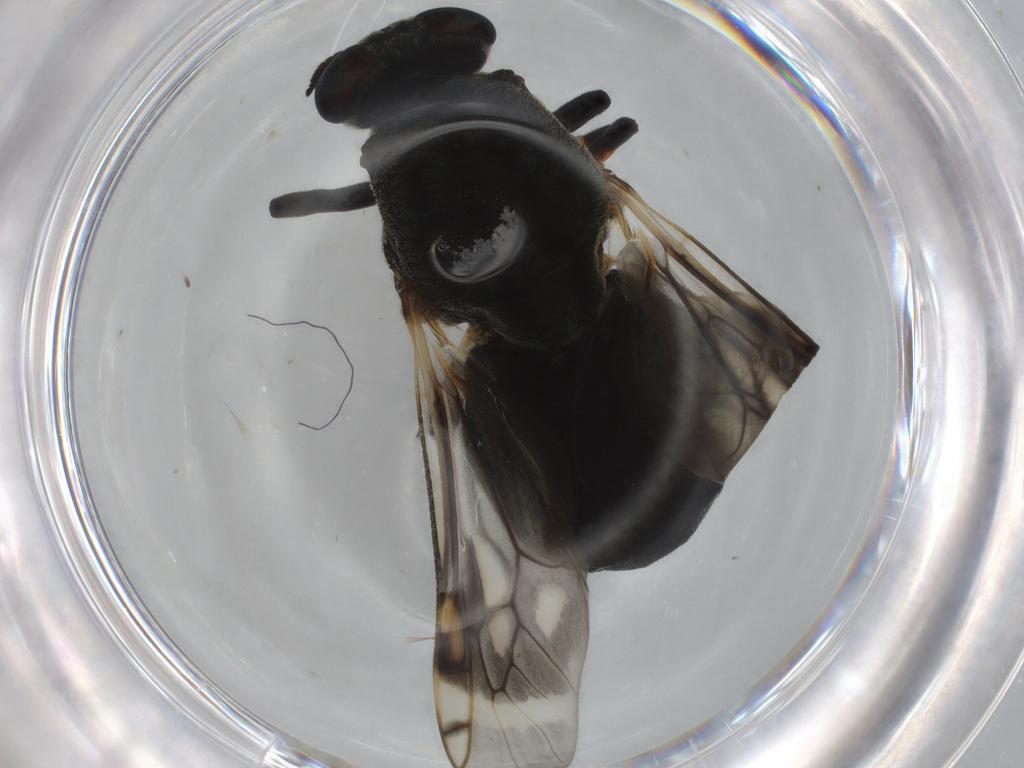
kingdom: Animalia
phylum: Arthropoda
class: Insecta
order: Diptera
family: Stratiomyidae
